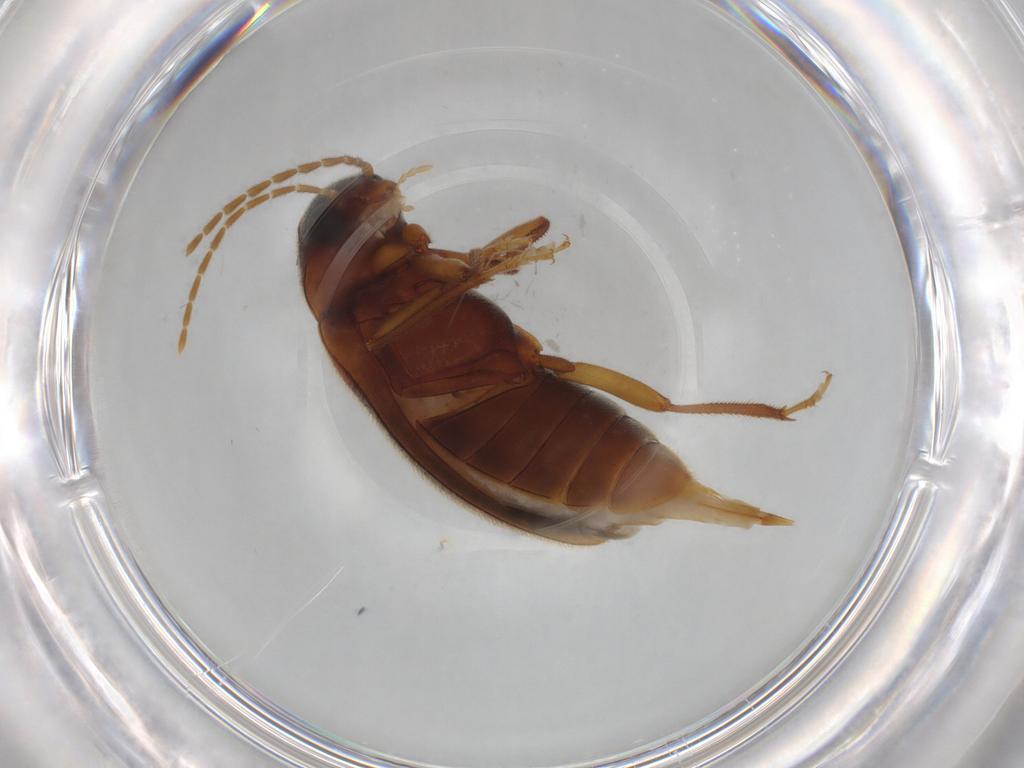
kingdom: Animalia
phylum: Arthropoda
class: Insecta
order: Coleoptera
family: Ptilodactylidae
